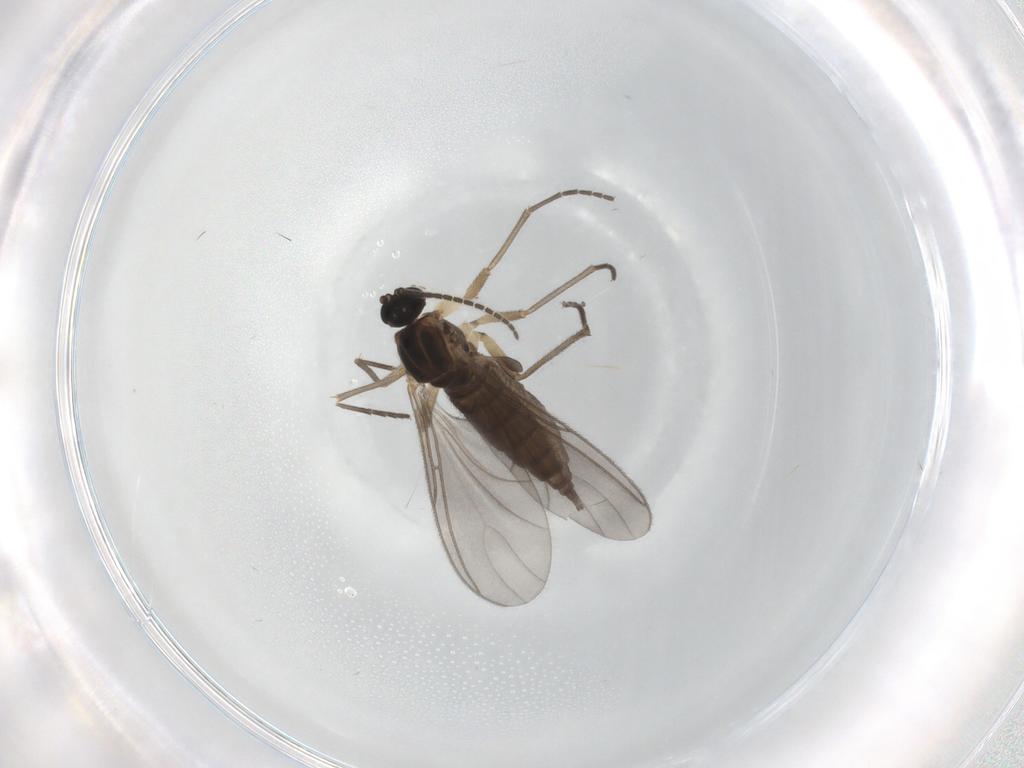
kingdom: Animalia
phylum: Arthropoda
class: Insecta
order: Diptera
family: Sciaridae
